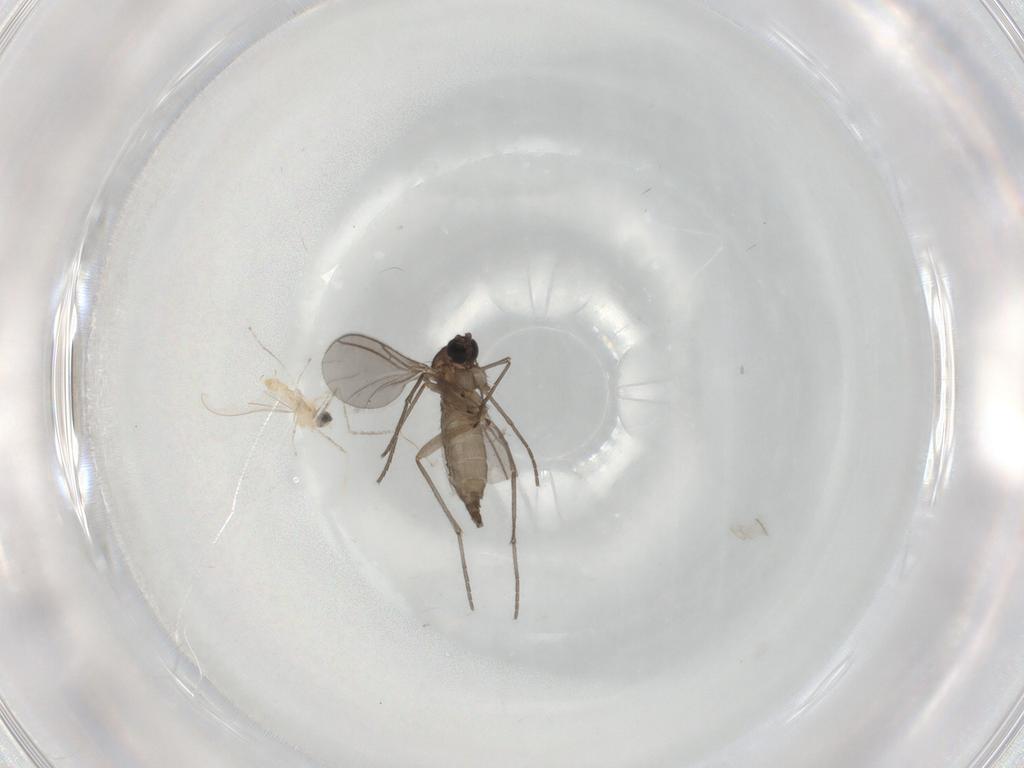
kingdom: Animalia
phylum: Arthropoda
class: Insecta
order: Diptera
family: Cecidomyiidae
